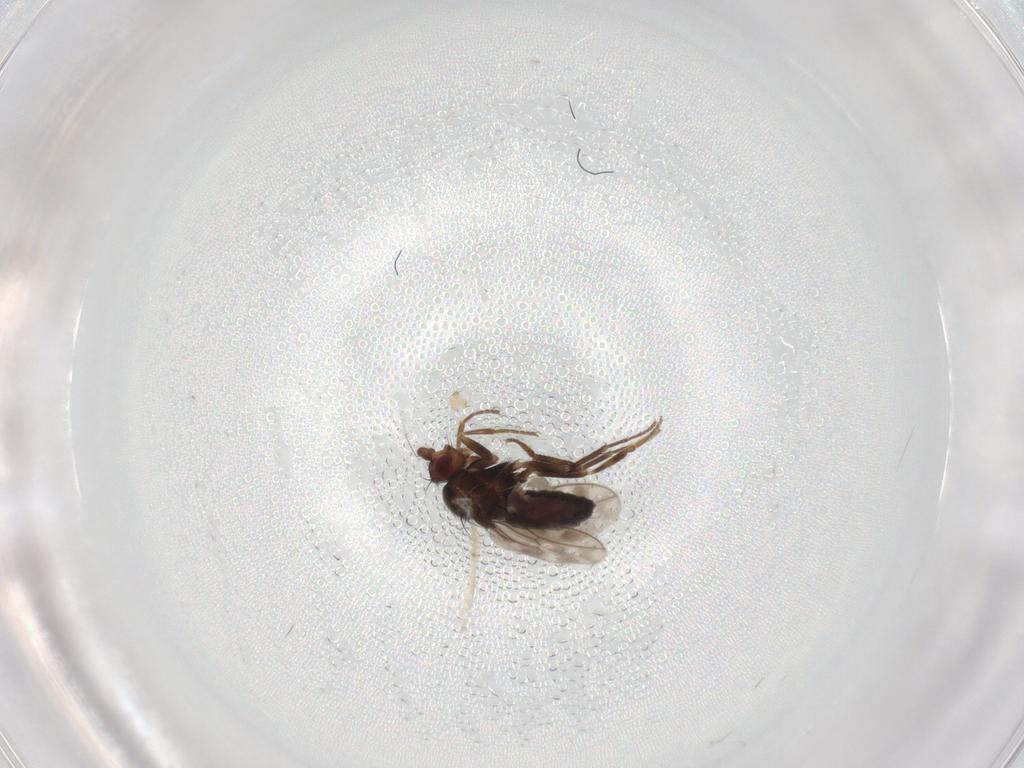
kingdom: Animalia
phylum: Arthropoda
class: Insecta
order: Diptera
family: Sphaeroceridae
